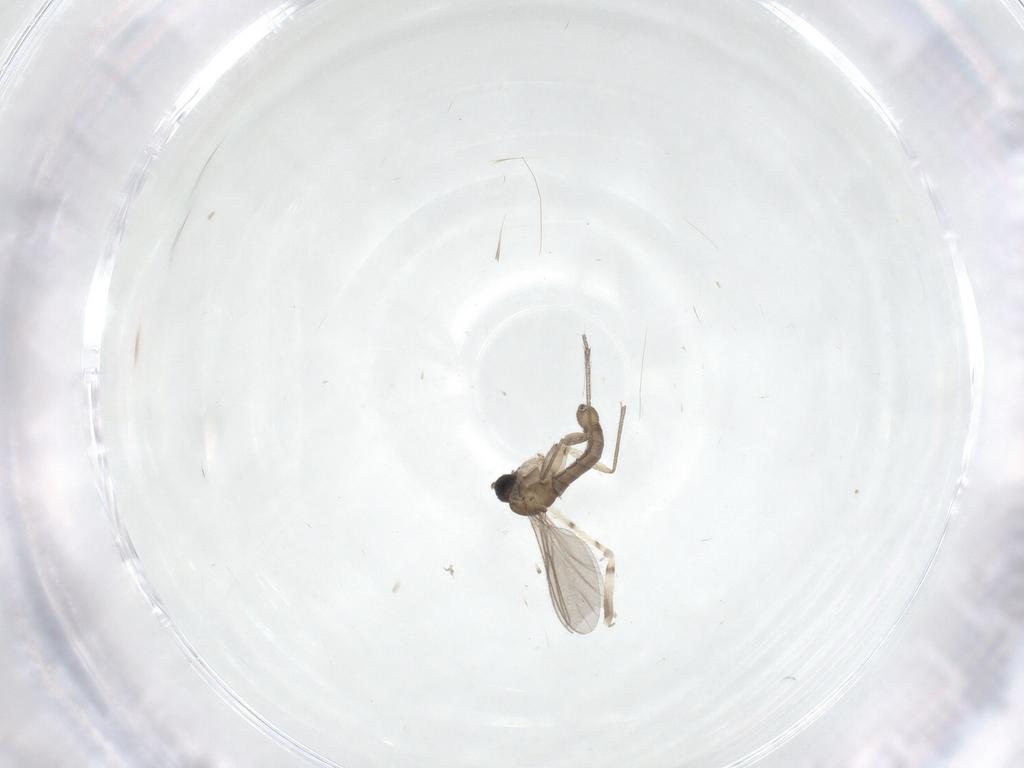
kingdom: Animalia
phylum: Arthropoda
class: Insecta
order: Diptera
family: Sciaridae
